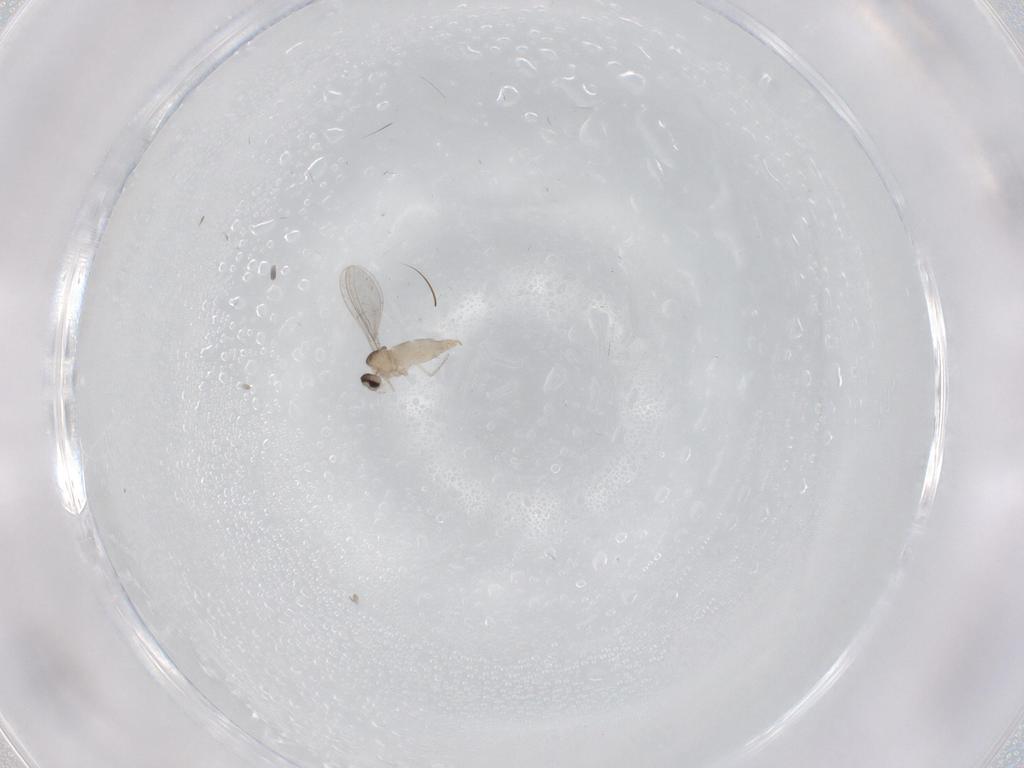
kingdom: Animalia
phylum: Arthropoda
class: Insecta
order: Diptera
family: Cecidomyiidae
